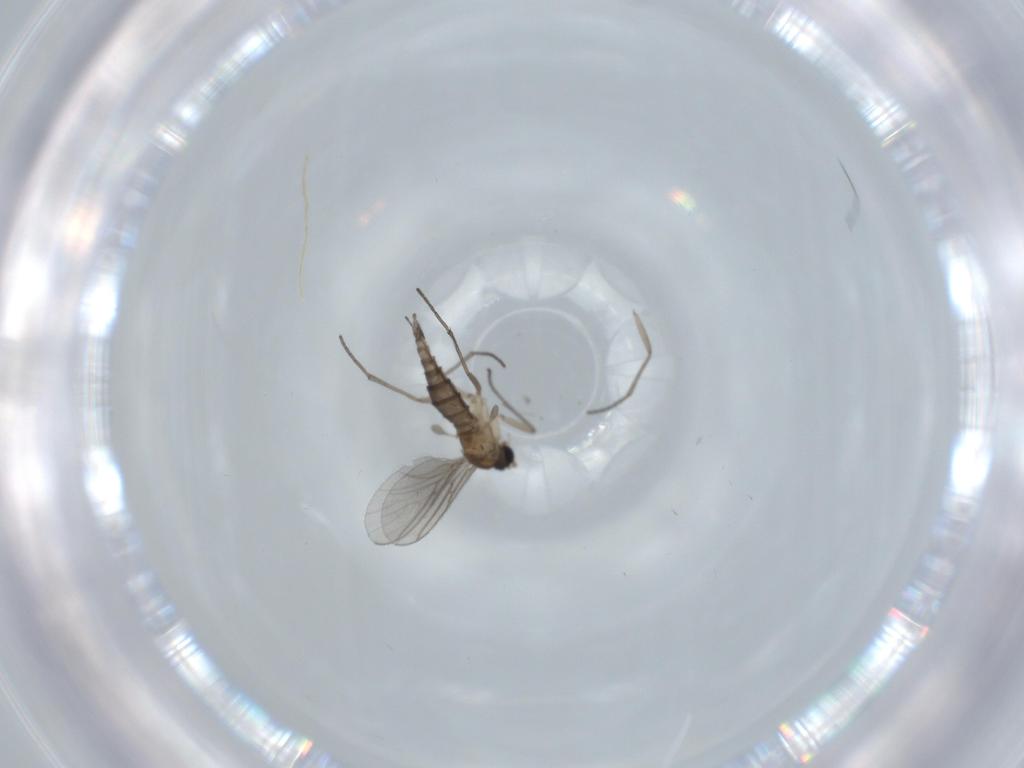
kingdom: Animalia
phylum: Arthropoda
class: Insecta
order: Diptera
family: Sciaridae
